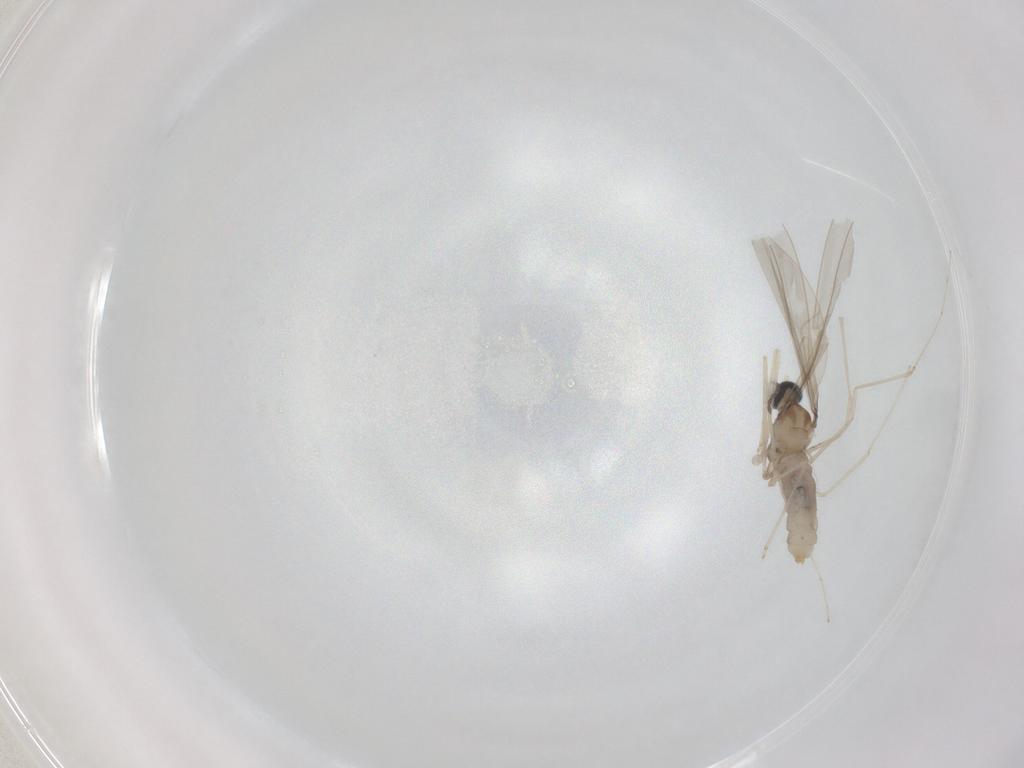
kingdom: Animalia
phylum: Arthropoda
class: Insecta
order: Diptera
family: Cecidomyiidae
